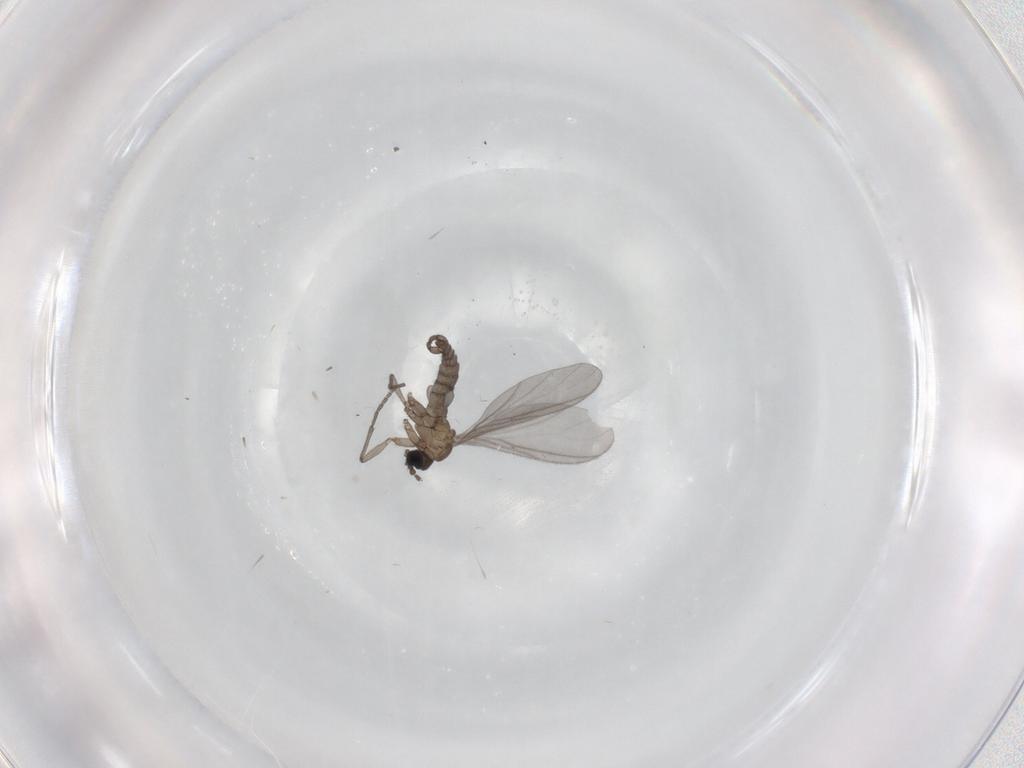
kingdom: Animalia
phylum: Arthropoda
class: Insecta
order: Diptera
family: Sciaridae
